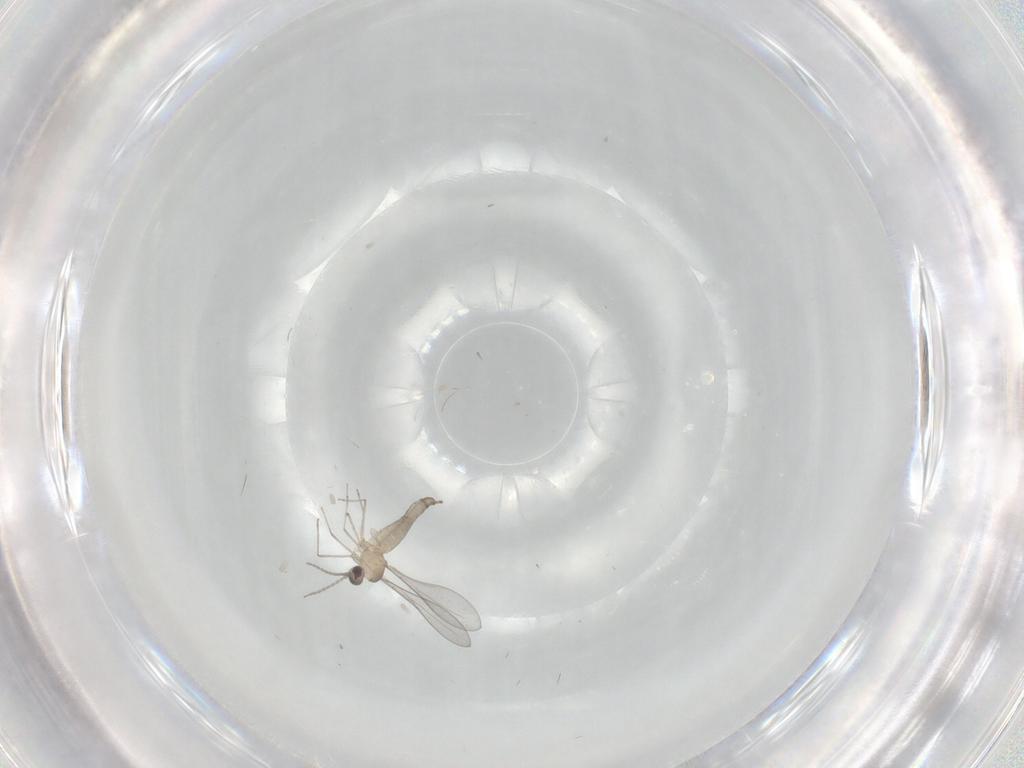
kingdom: Animalia
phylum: Arthropoda
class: Insecta
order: Diptera
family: Cecidomyiidae
